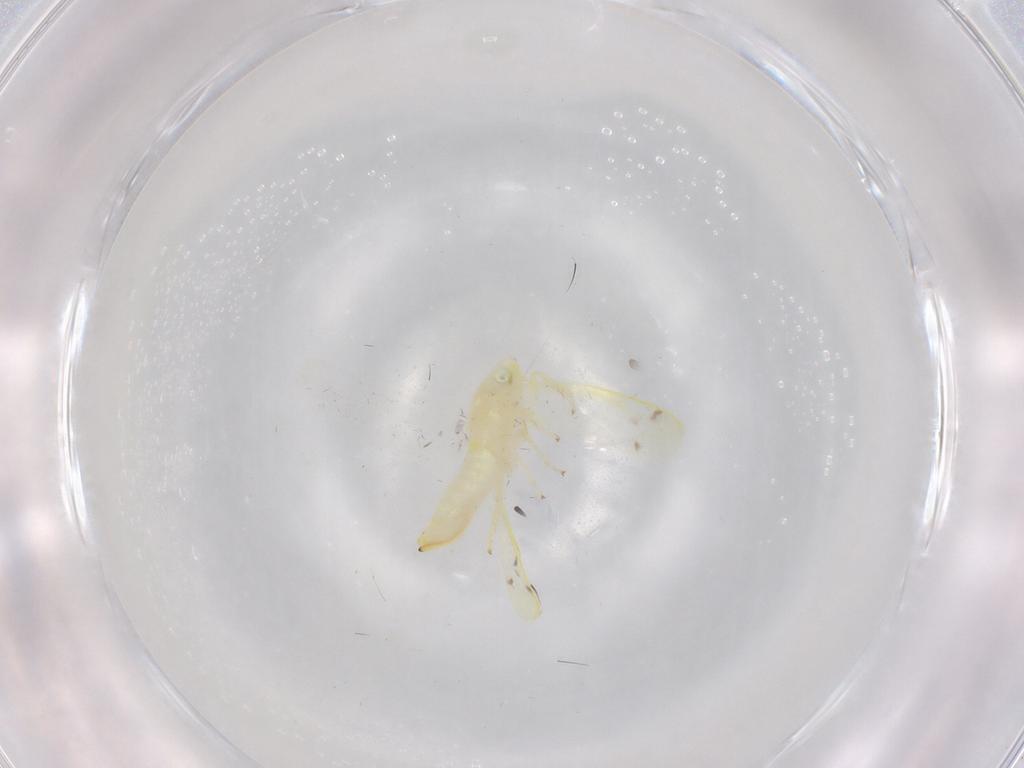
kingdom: Animalia
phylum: Arthropoda
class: Insecta
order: Hemiptera
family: Cicadellidae
